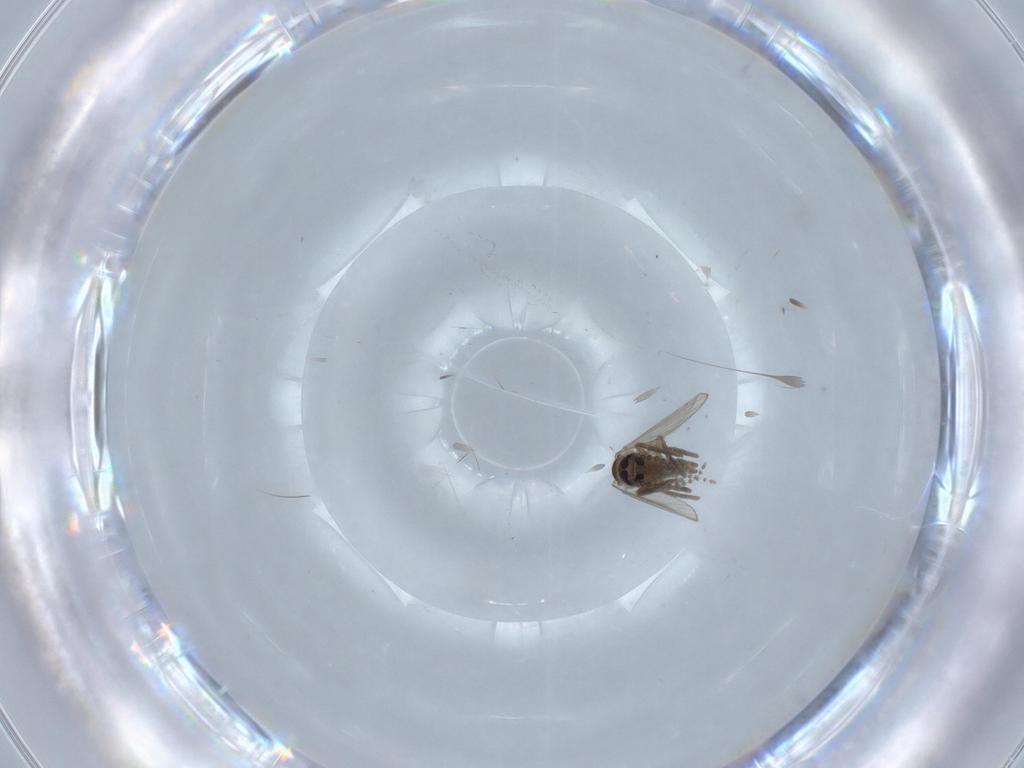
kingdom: Animalia
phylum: Arthropoda
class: Insecta
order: Diptera
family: Psychodidae
